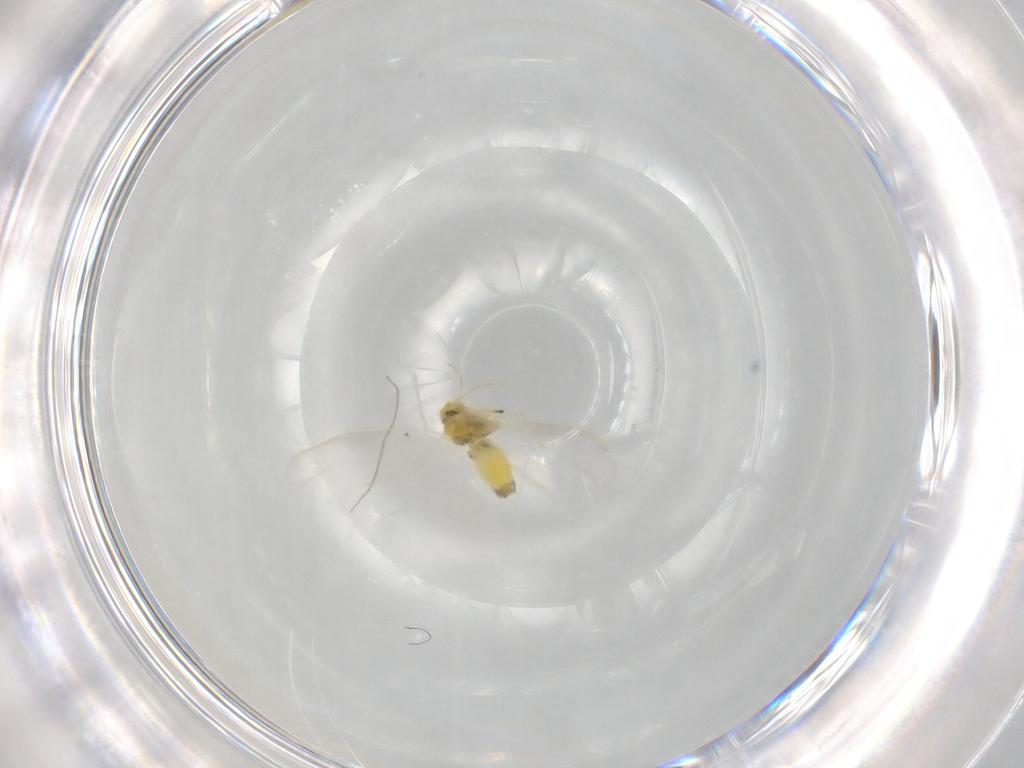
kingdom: Animalia
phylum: Arthropoda
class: Insecta
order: Hemiptera
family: Aleyrodidae
